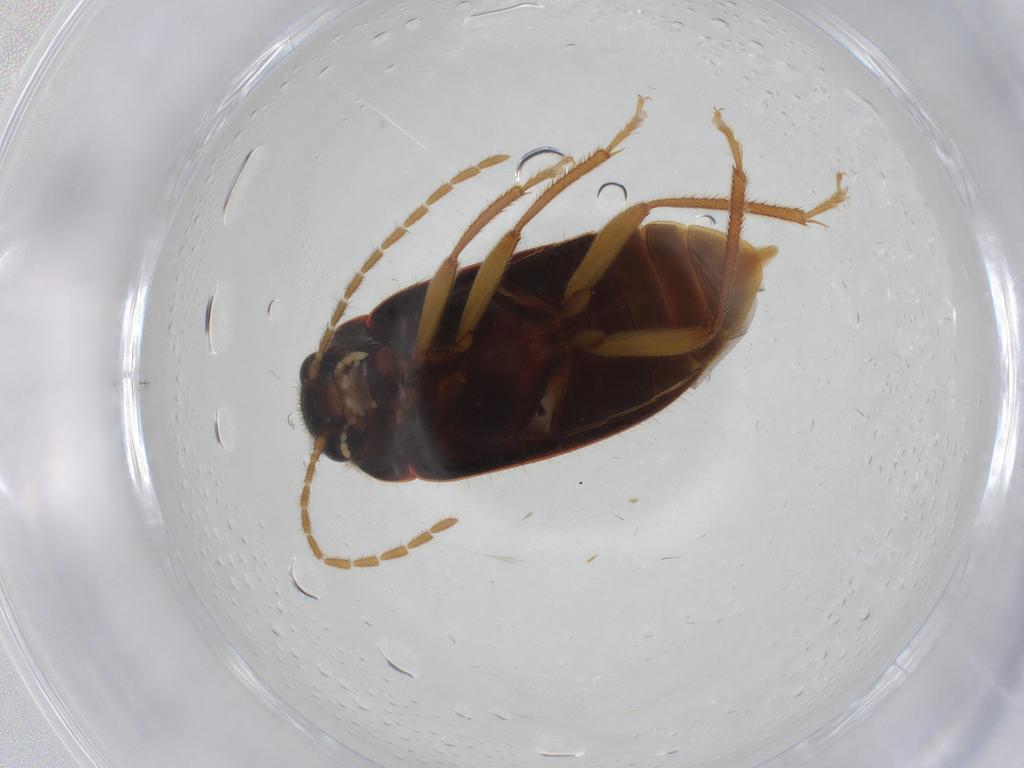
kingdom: Animalia
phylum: Arthropoda
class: Insecta
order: Coleoptera
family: Ptilodactylidae
